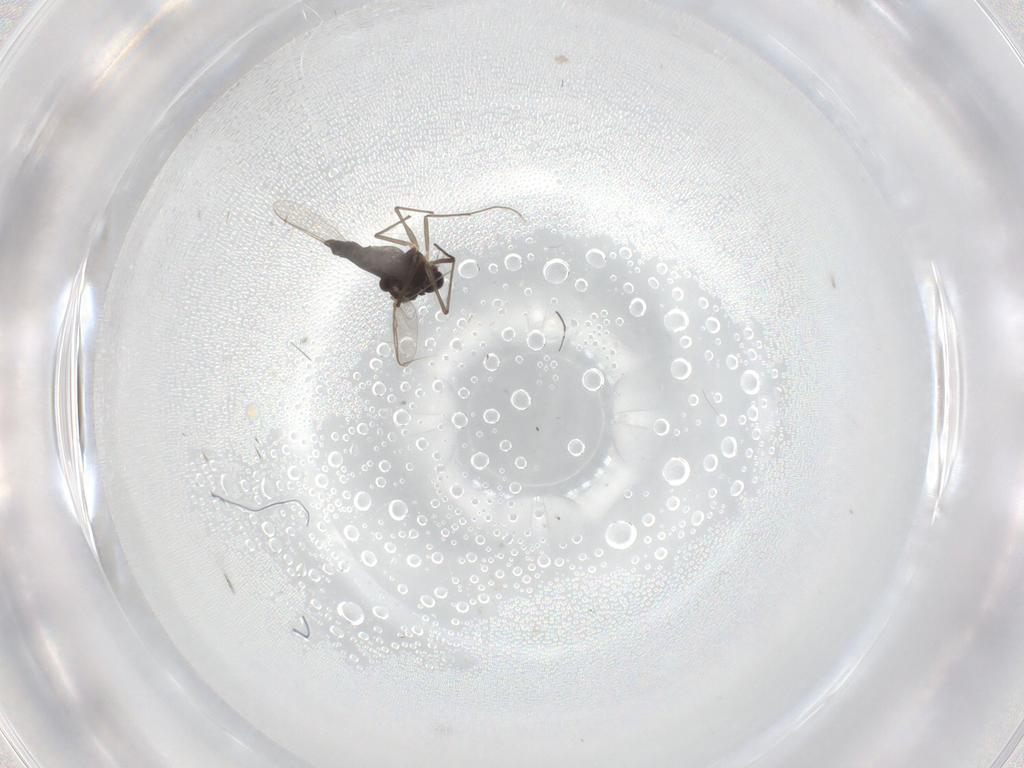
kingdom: Animalia
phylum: Arthropoda
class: Insecta
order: Diptera
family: Chironomidae
